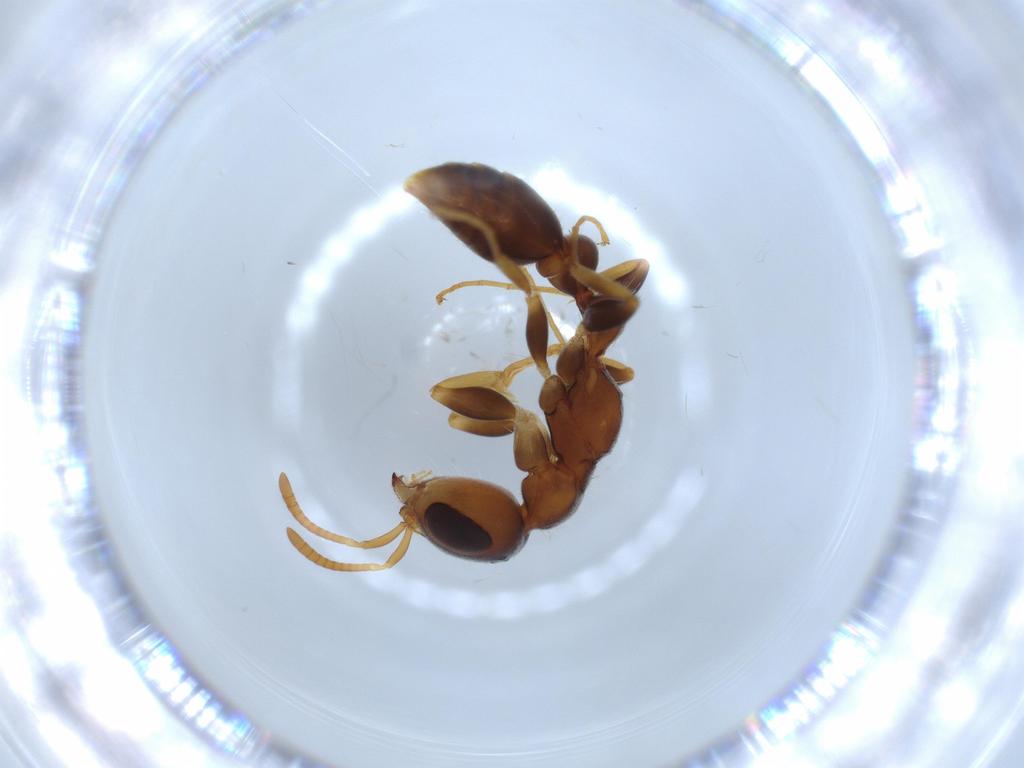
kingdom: Animalia
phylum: Arthropoda
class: Insecta
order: Hymenoptera
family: Formicidae
